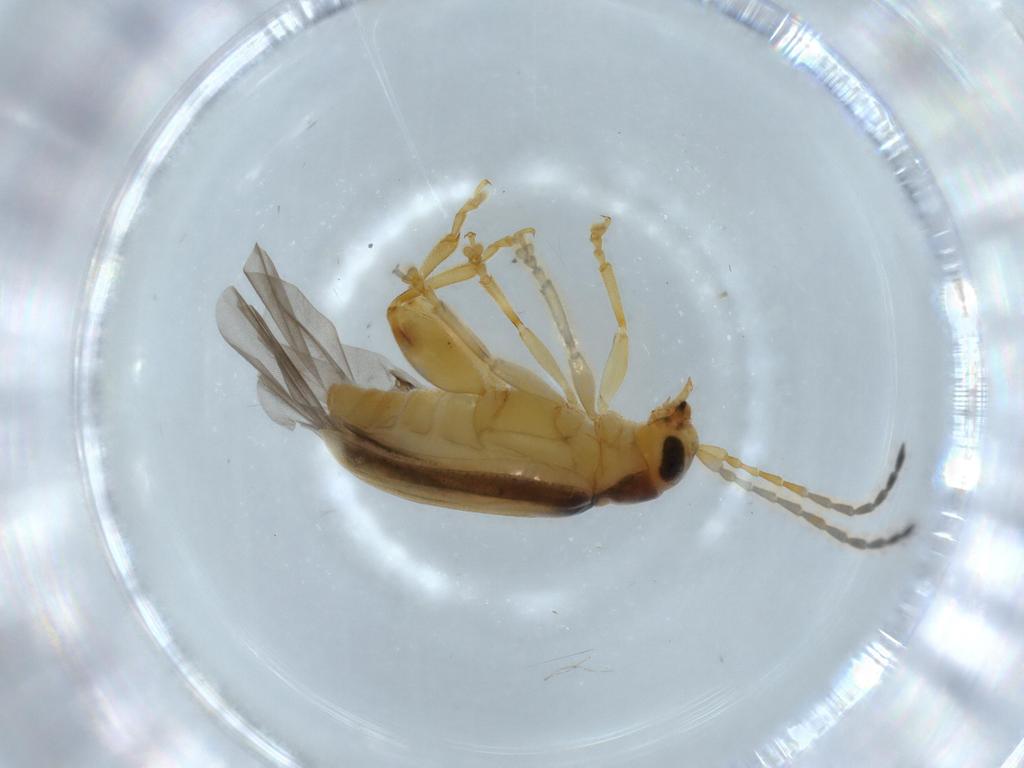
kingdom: Animalia
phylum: Arthropoda
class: Insecta
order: Coleoptera
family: Chrysomelidae
